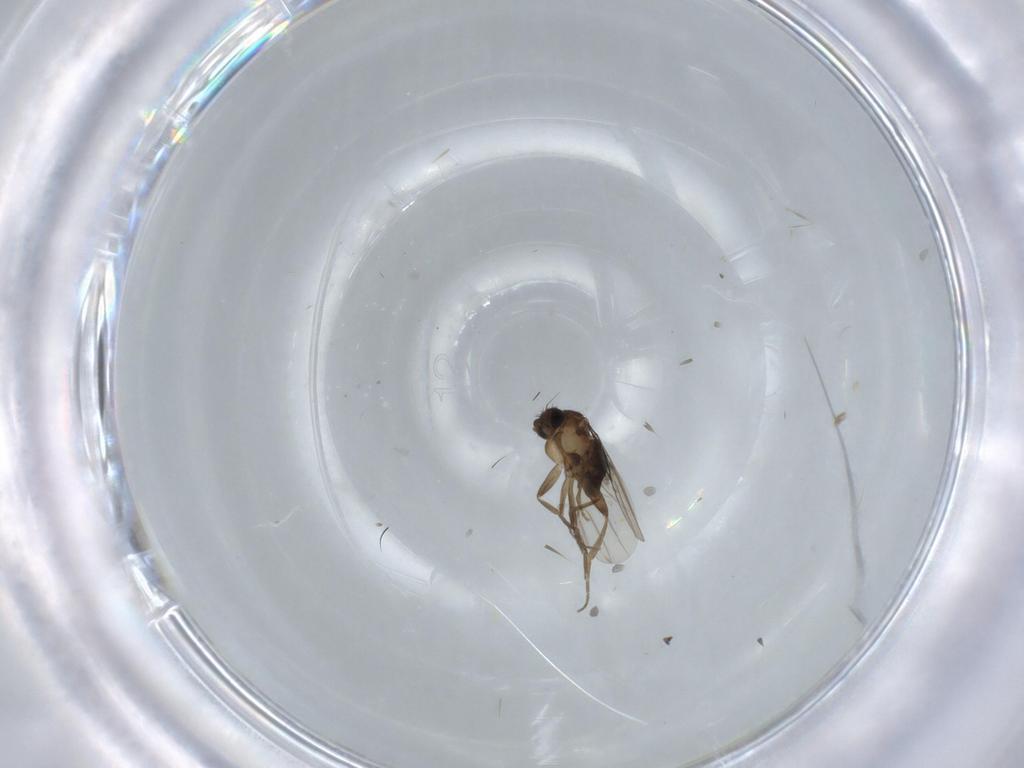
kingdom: Animalia
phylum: Arthropoda
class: Insecta
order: Diptera
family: Phoridae
